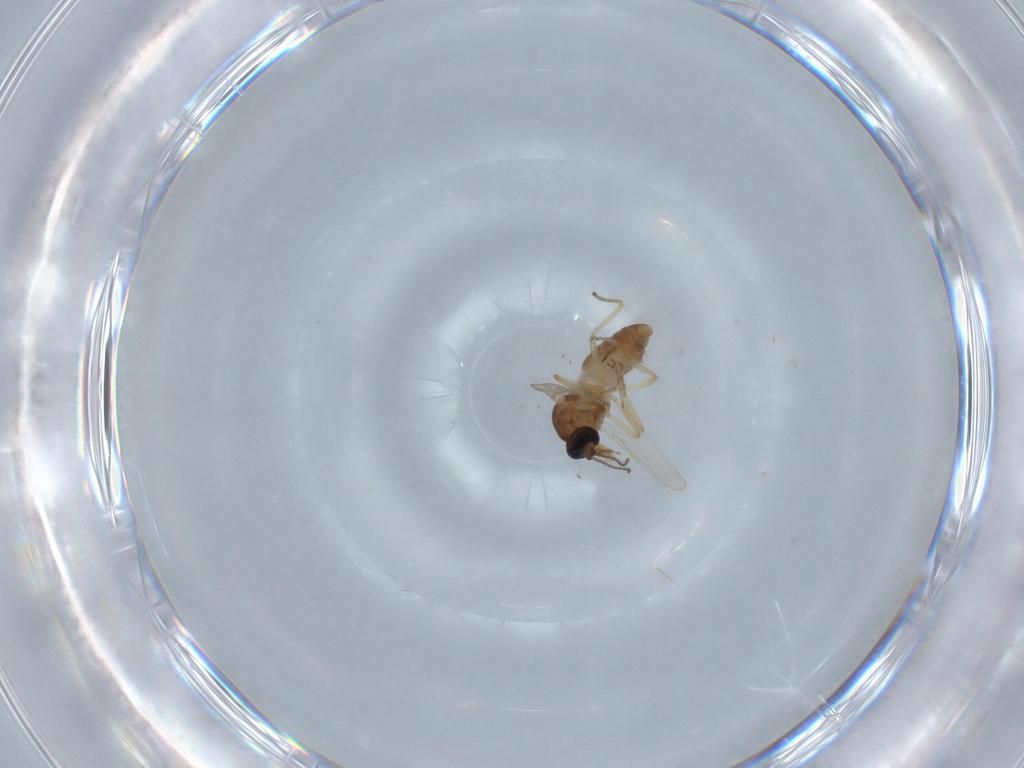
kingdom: Animalia
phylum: Arthropoda
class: Insecta
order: Diptera
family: Ceratopogonidae
